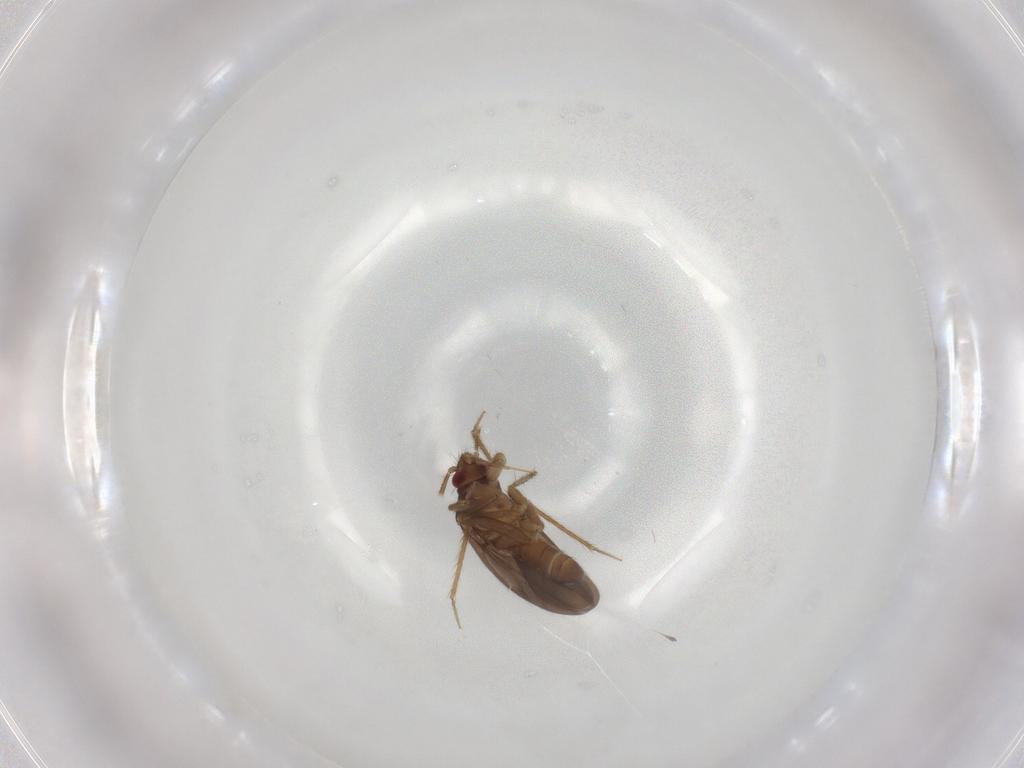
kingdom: Animalia
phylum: Arthropoda
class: Insecta
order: Hemiptera
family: Ceratocombidae
